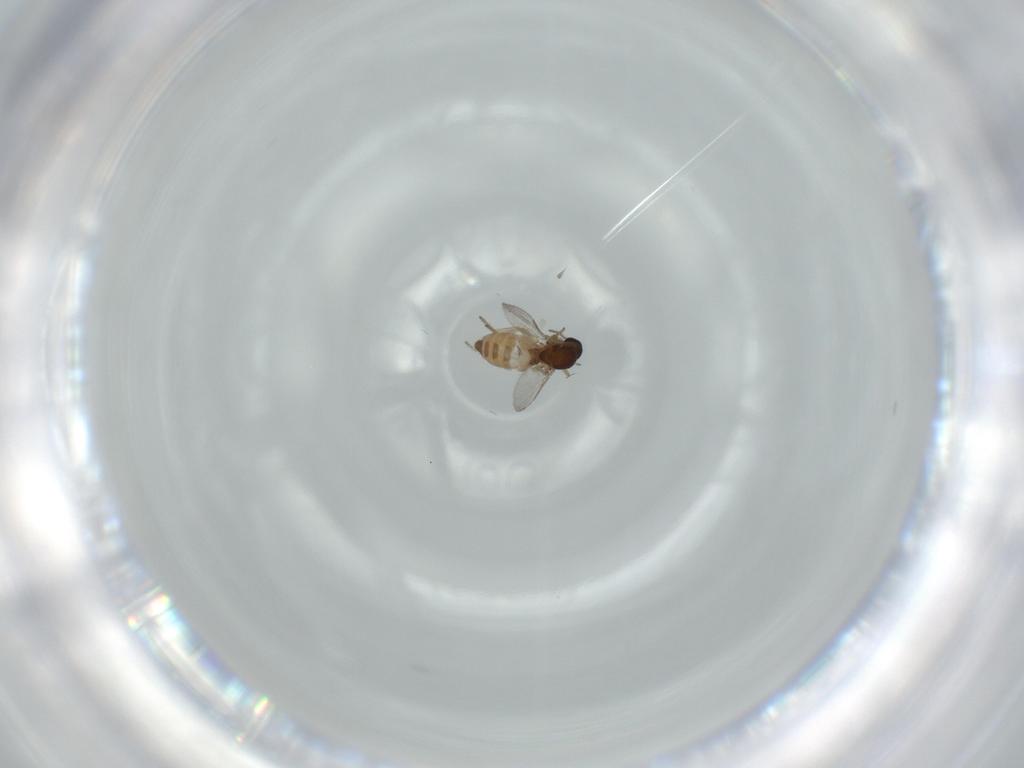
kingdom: Animalia
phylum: Arthropoda
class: Insecta
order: Diptera
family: Ceratopogonidae
